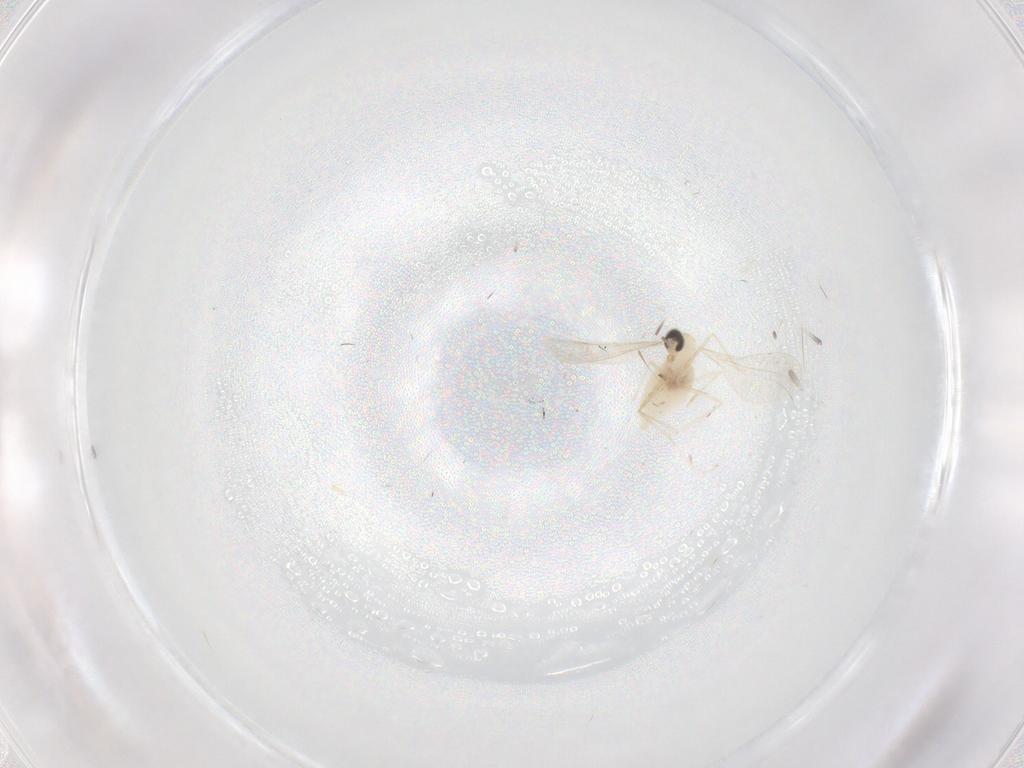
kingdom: Animalia
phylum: Arthropoda
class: Insecta
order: Diptera
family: Cecidomyiidae
